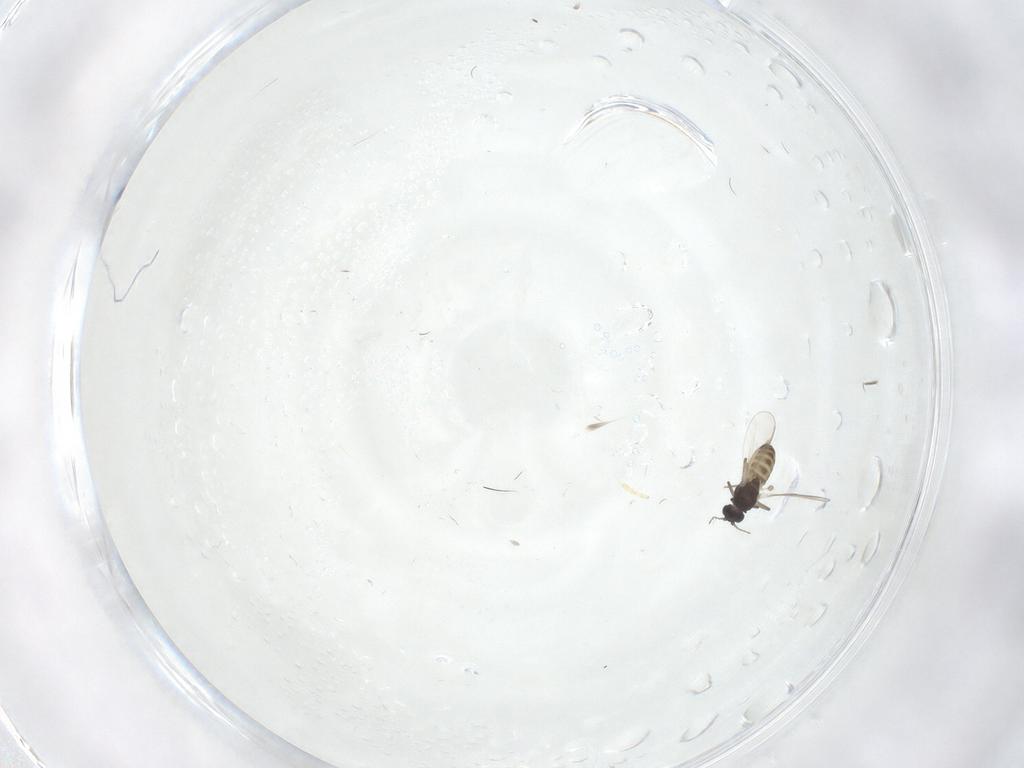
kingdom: Animalia
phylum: Arthropoda
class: Insecta
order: Diptera
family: Chironomidae
